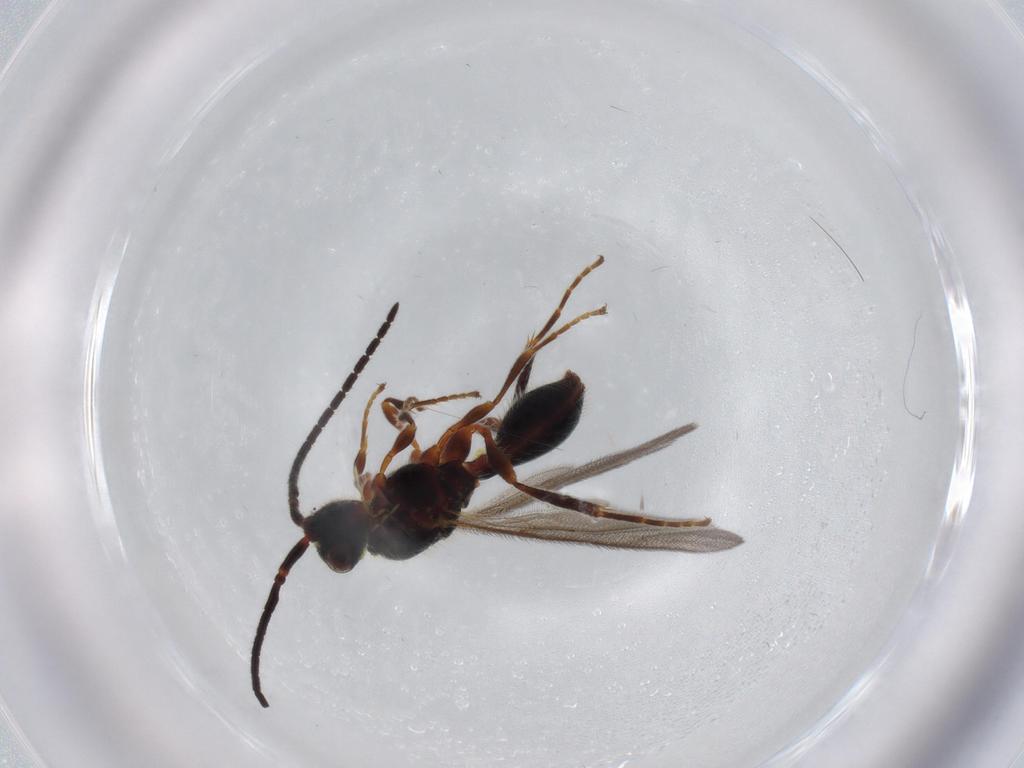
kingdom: Animalia
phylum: Arthropoda
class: Insecta
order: Hymenoptera
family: Diapriidae
